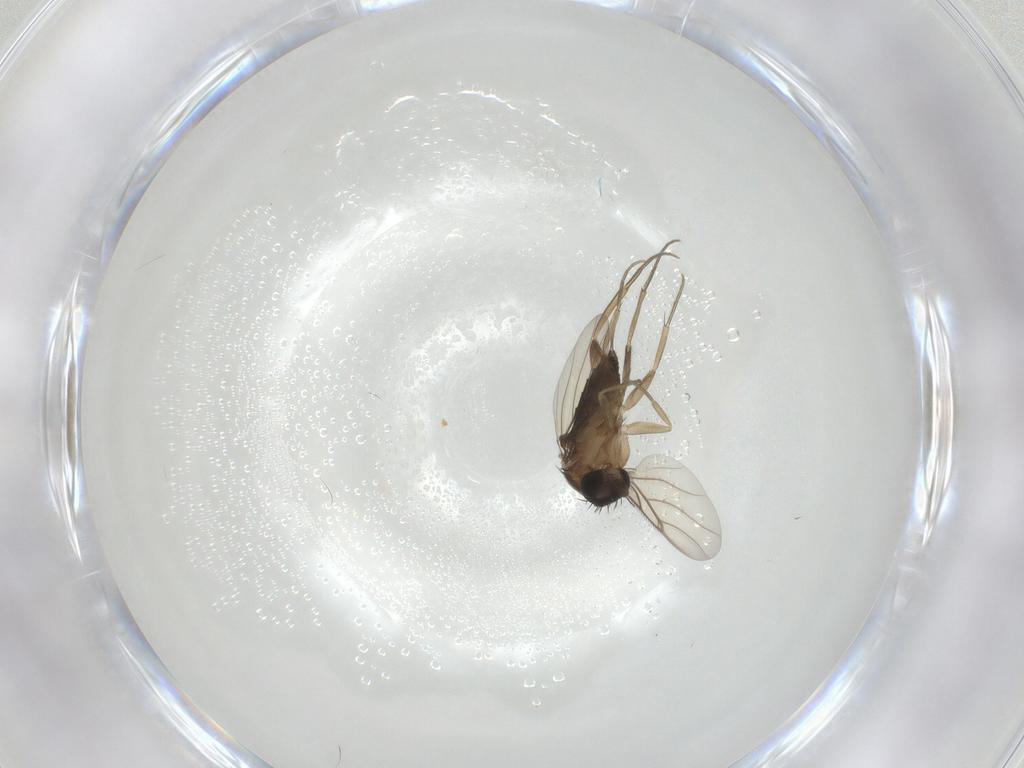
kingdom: Animalia
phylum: Arthropoda
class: Insecta
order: Diptera
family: Phoridae
